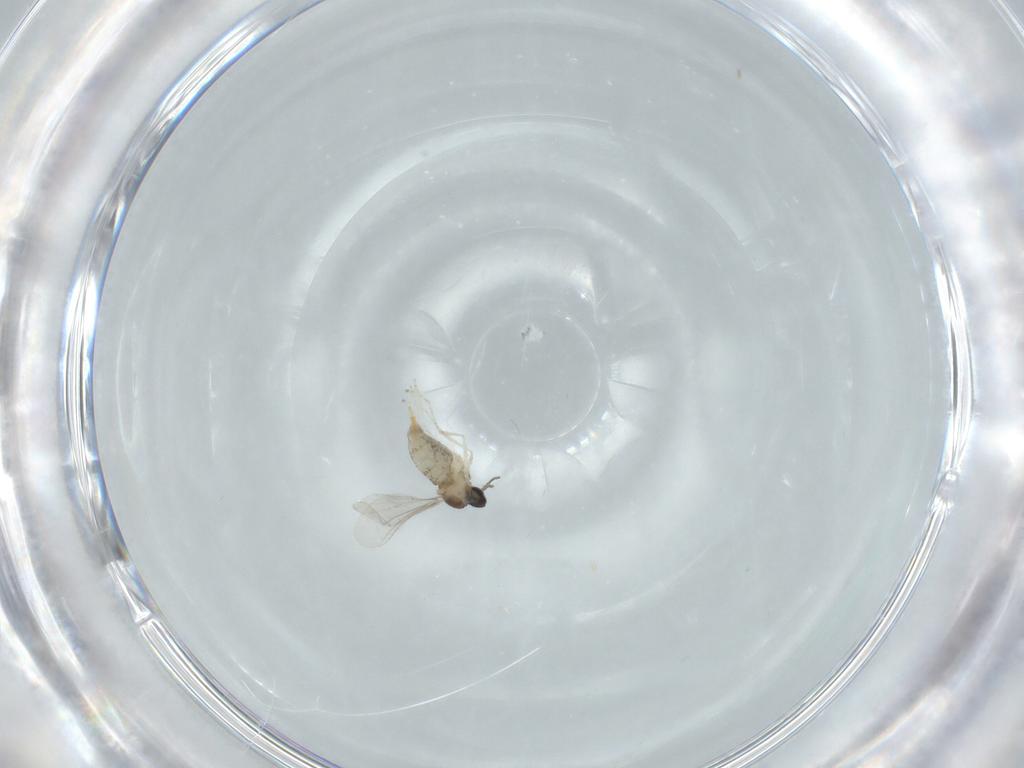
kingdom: Animalia
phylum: Arthropoda
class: Insecta
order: Diptera
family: Cecidomyiidae
